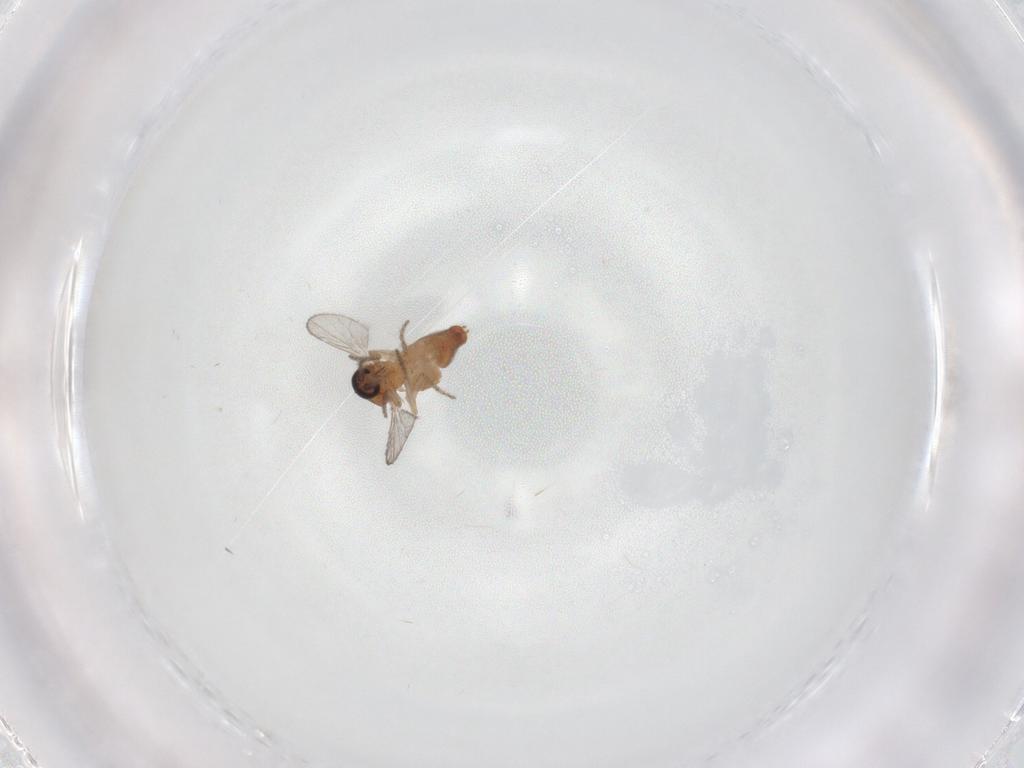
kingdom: Animalia
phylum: Arthropoda
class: Insecta
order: Diptera
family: Ceratopogonidae
